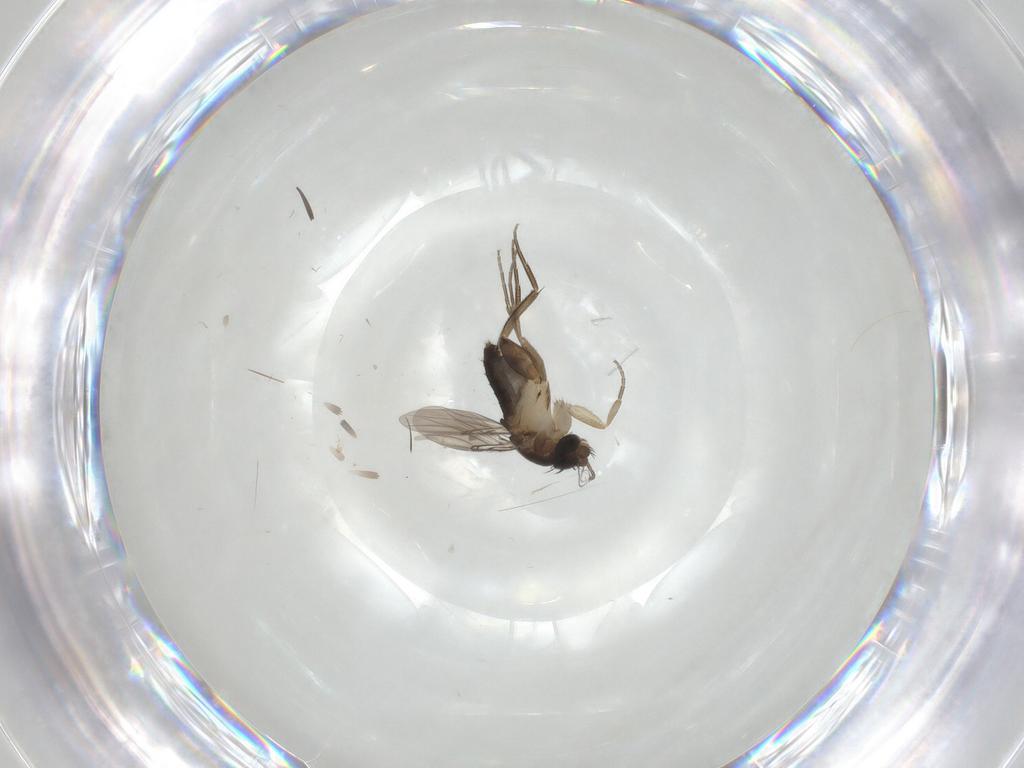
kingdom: Animalia
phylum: Arthropoda
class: Insecta
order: Diptera
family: Phoridae
